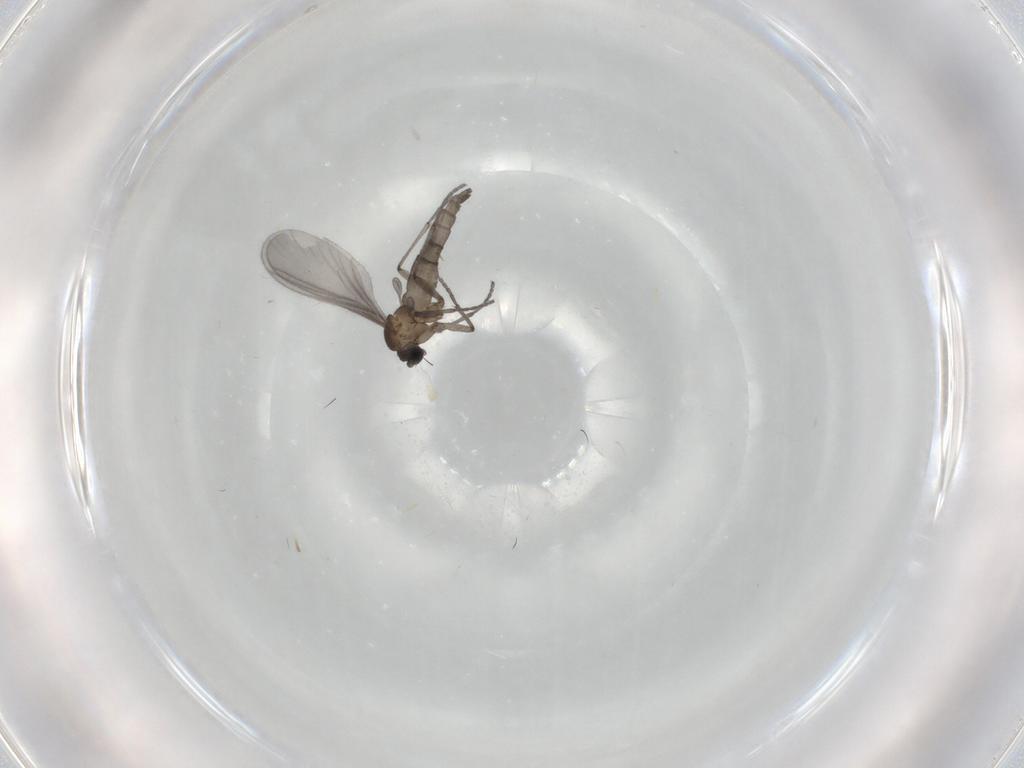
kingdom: Animalia
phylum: Arthropoda
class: Insecta
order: Diptera
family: Sciaridae
